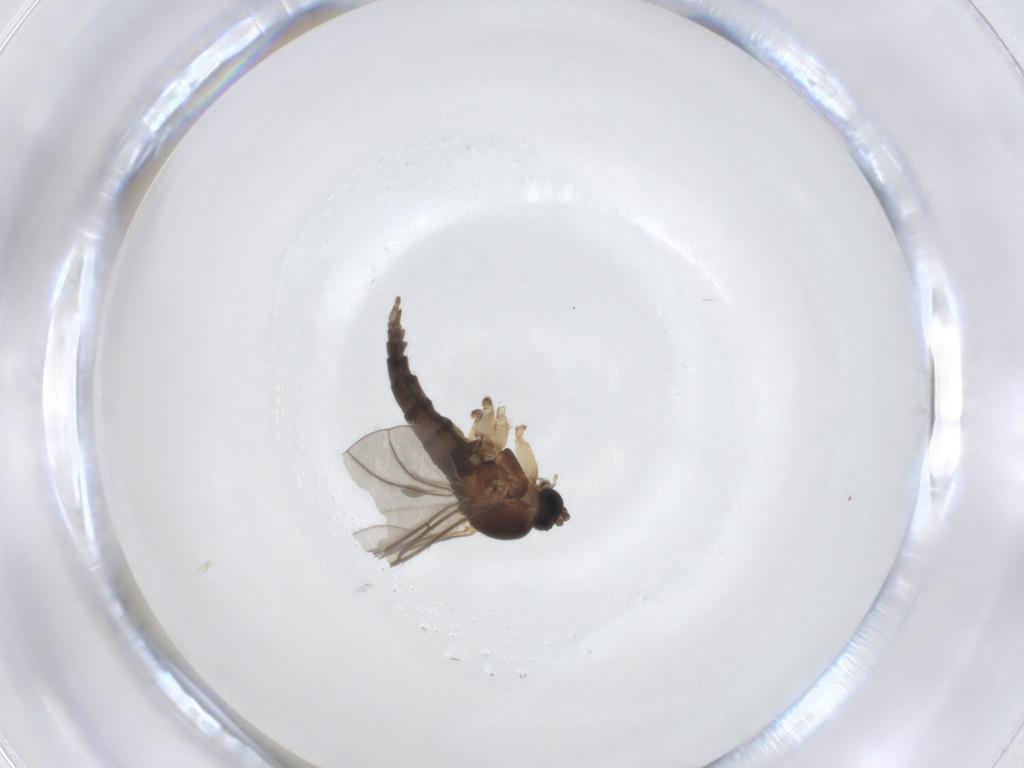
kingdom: Animalia
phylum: Arthropoda
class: Insecta
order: Diptera
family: Sciaridae
